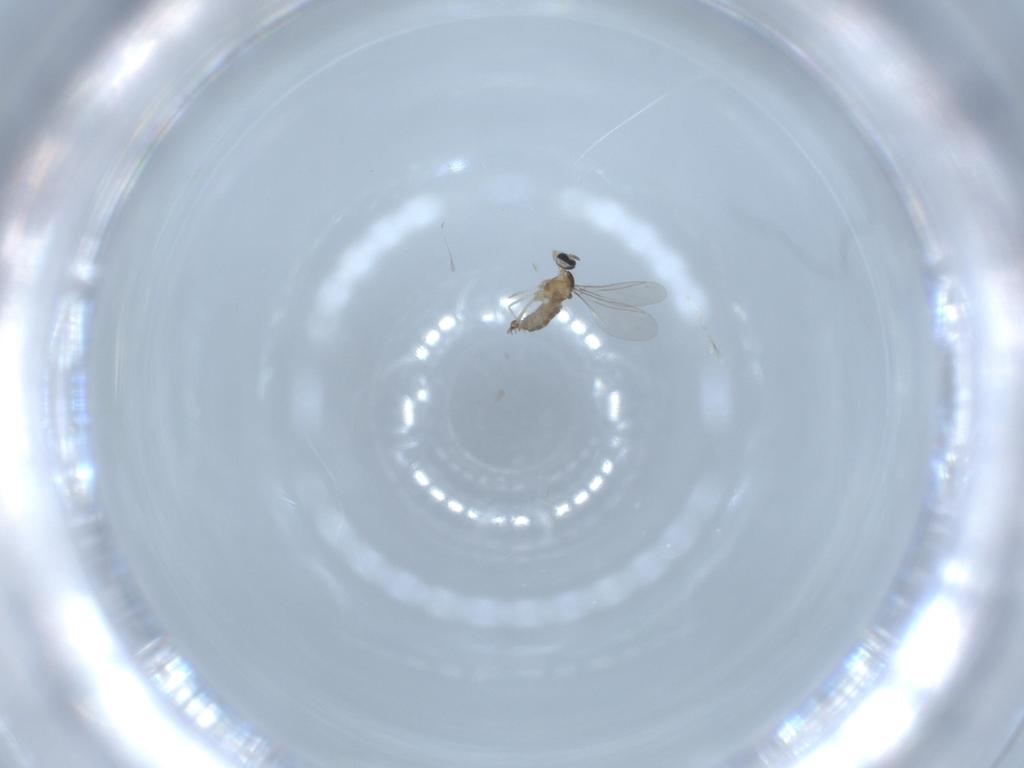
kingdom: Animalia
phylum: Arthropoda
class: Insecta
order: Diptera
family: Cecidomyiidae
